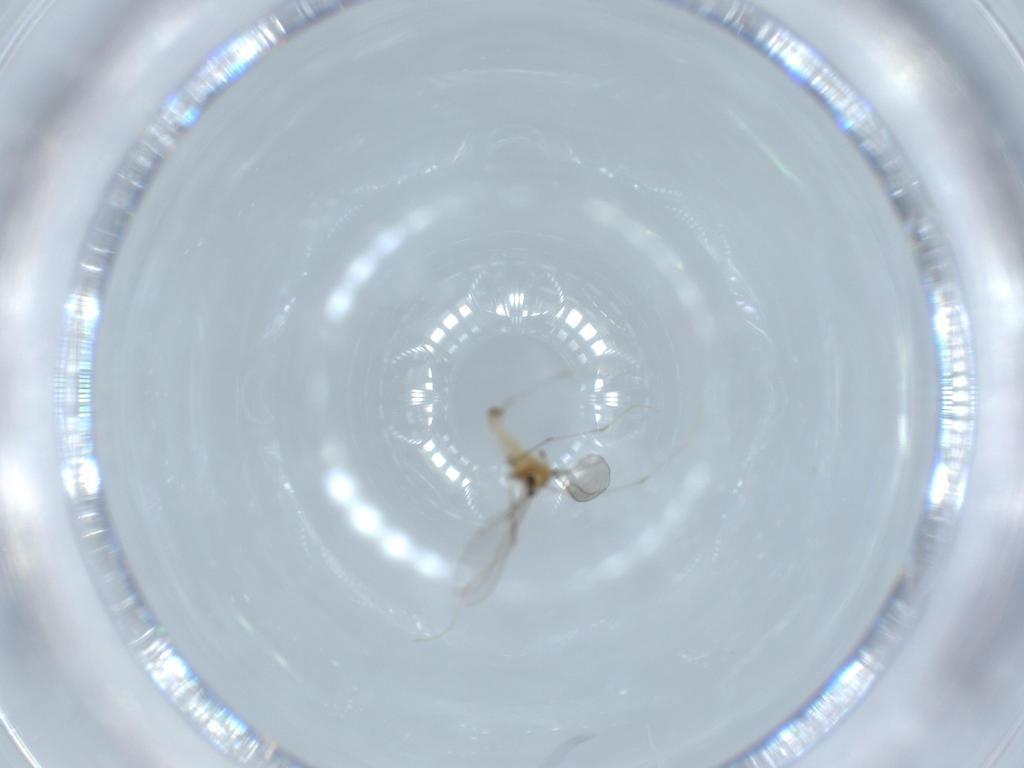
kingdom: Animalia
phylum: Arthropoda
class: Insecta
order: Diptera
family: Cecidomyiidae
